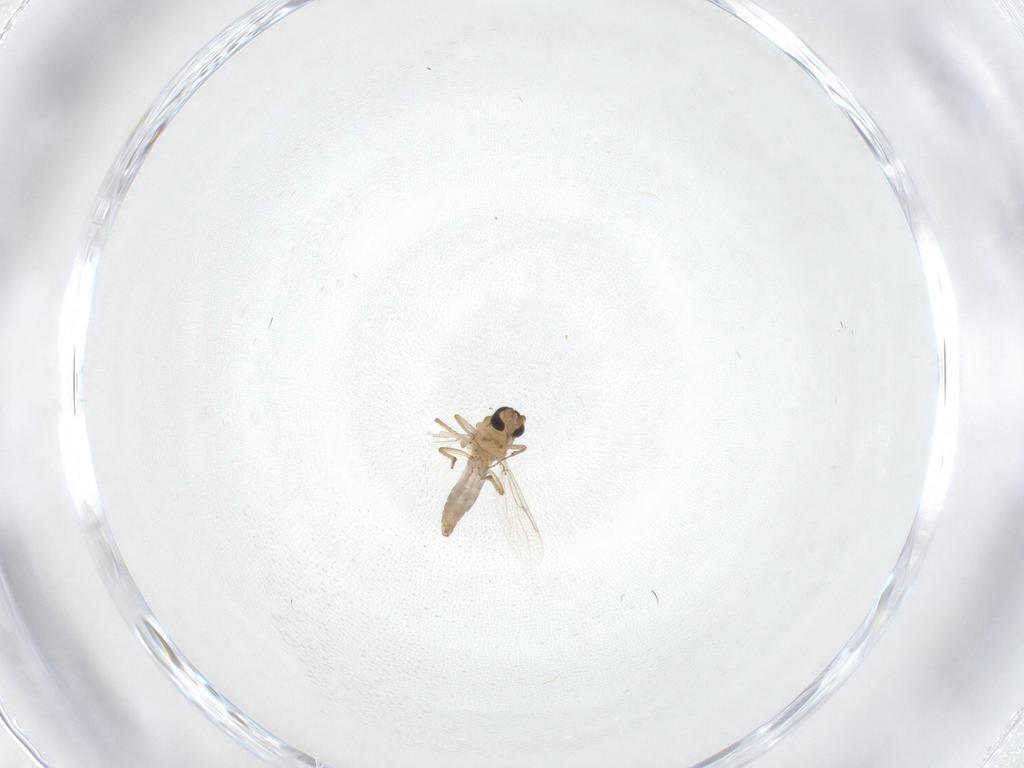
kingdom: Animalia
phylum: Arthropoda
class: Insecta
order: Diptera
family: Ceratopogonidae
